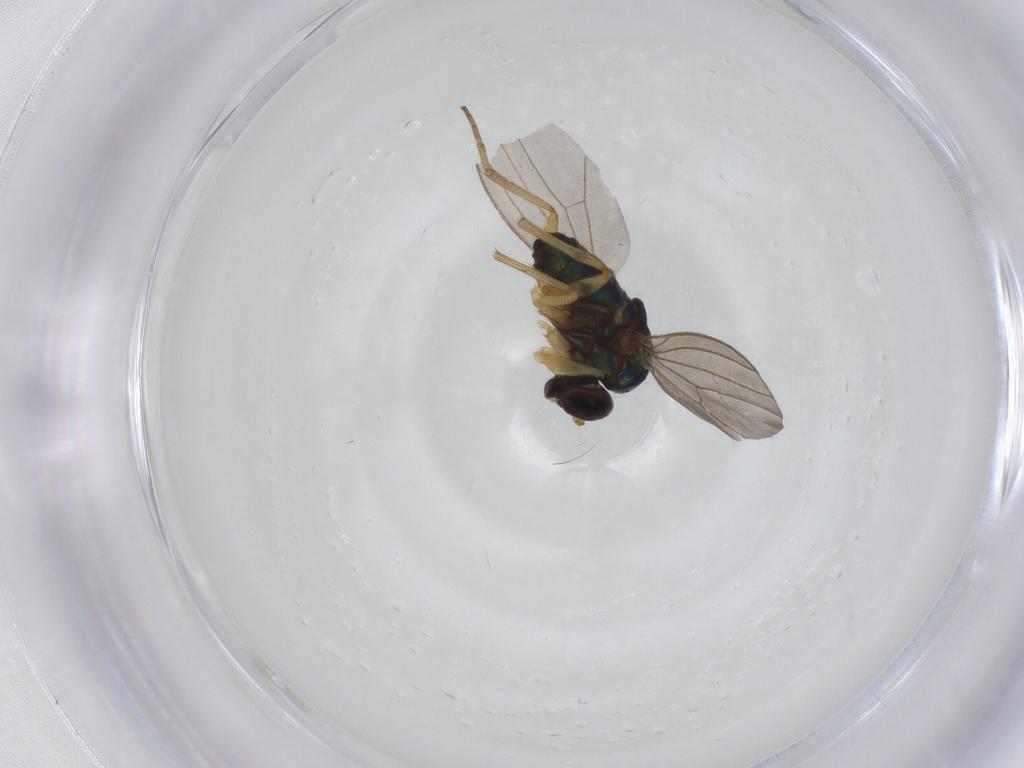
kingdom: Animalia
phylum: Arthropoda
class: Insecta
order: Diptera
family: Dolichopodidae
